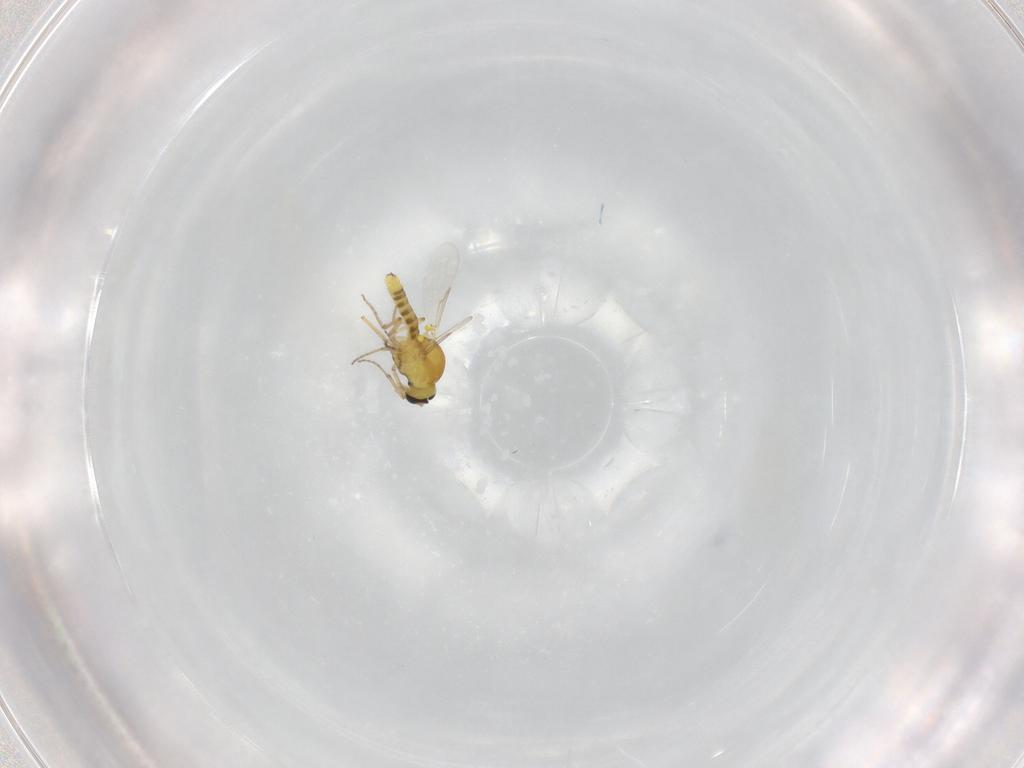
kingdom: Animalia
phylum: Arthropoda
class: Insecta
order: Diptera
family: Ceratopogonidae
